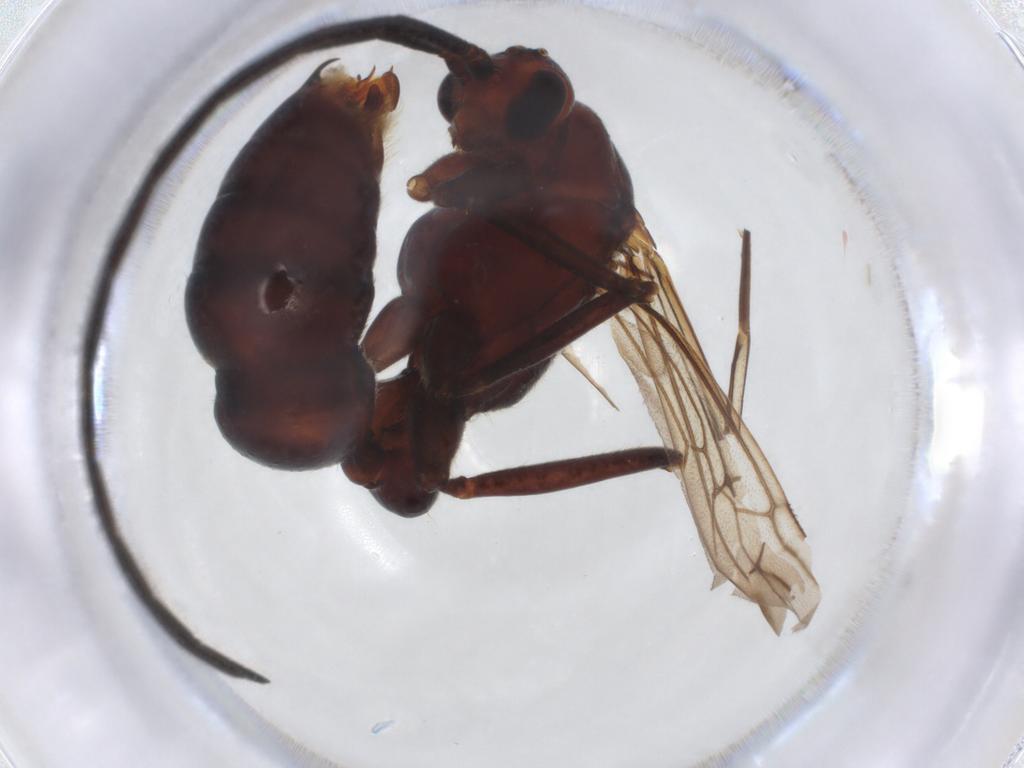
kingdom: Animalia
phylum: Arthropoda
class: Insecta
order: Hymenoptera
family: Formicidae
